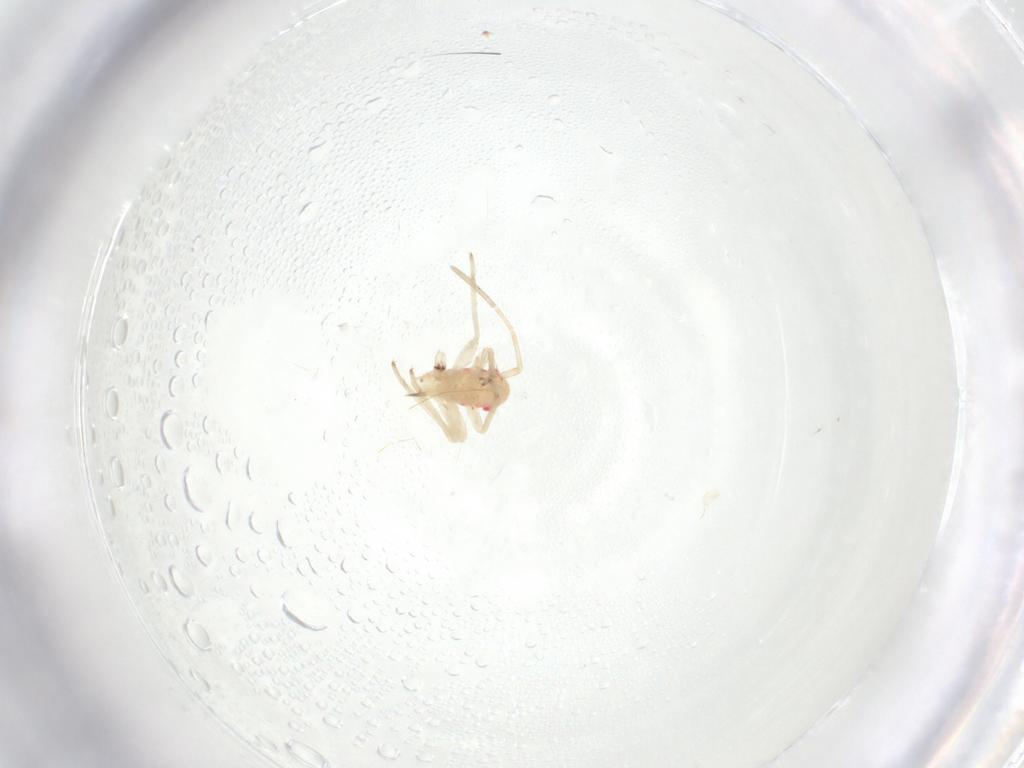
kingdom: Animalia
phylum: Arthropoda
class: Insecta
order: Hemiptera
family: Miridae
